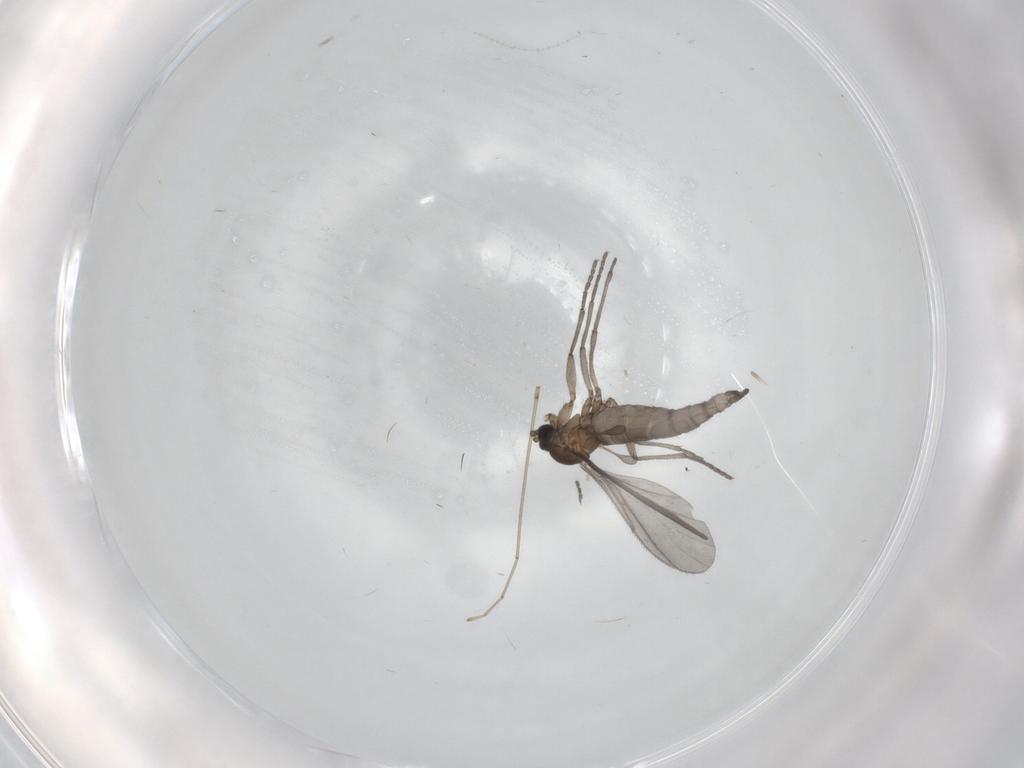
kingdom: Animalia
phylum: Arthropoda
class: Insecta
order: Diptera
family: Sciaridae
